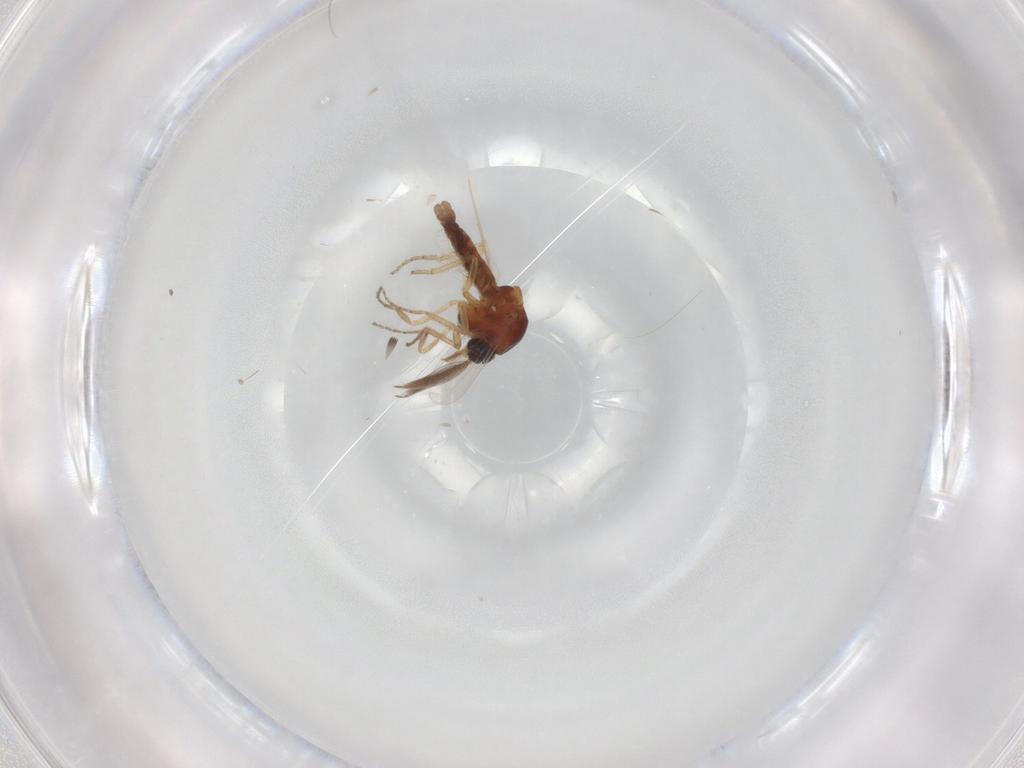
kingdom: Animalia
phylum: Arthropoda
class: Insecta
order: Diptera
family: Ceratopogonidae
